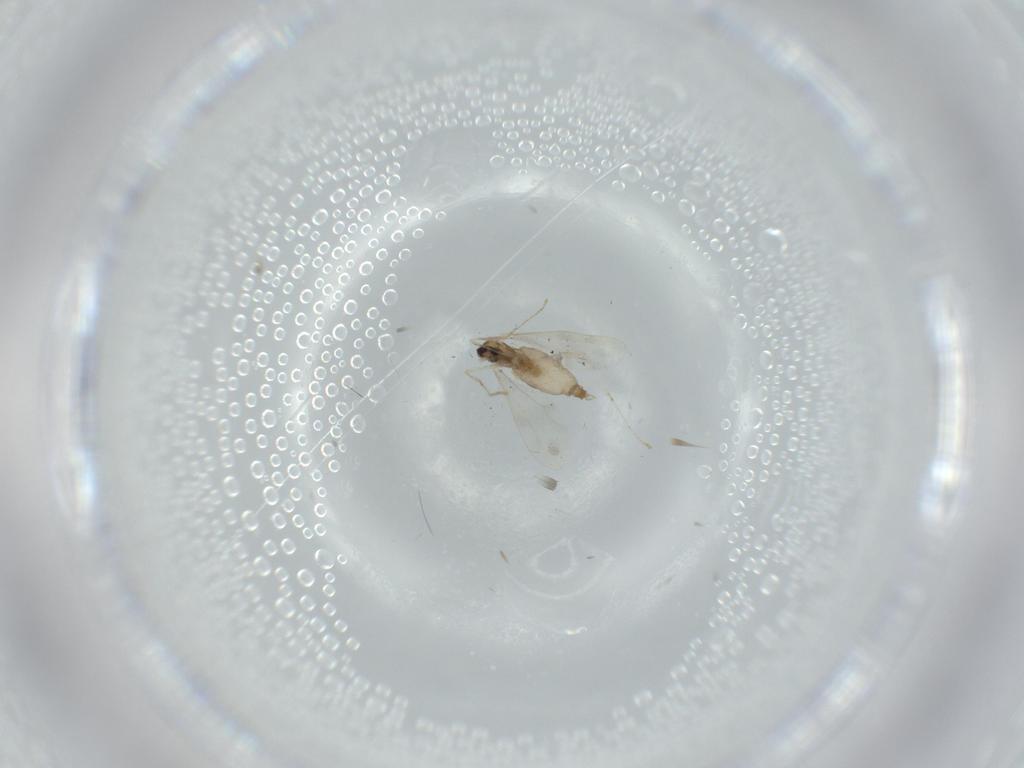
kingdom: Animalia
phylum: Arthropoda
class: Insecta
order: Diptera
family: Cecidomyiidae
